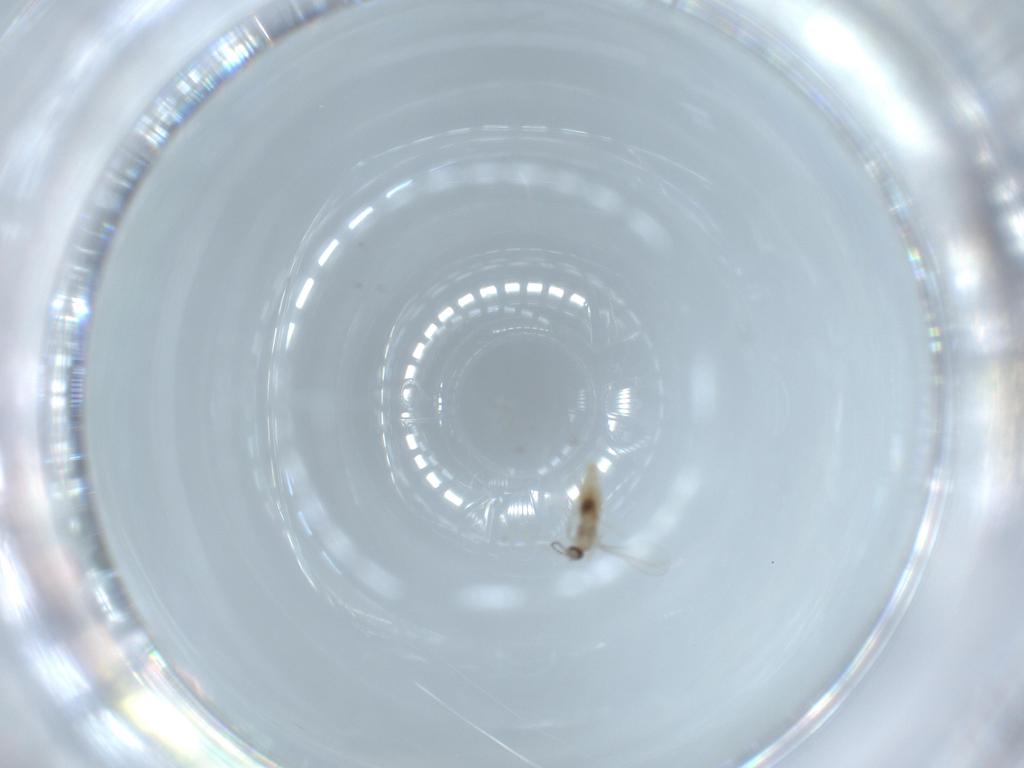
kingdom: Animalia
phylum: Arthropoda
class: Insecta
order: Diptera
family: Cecidomyiidae
